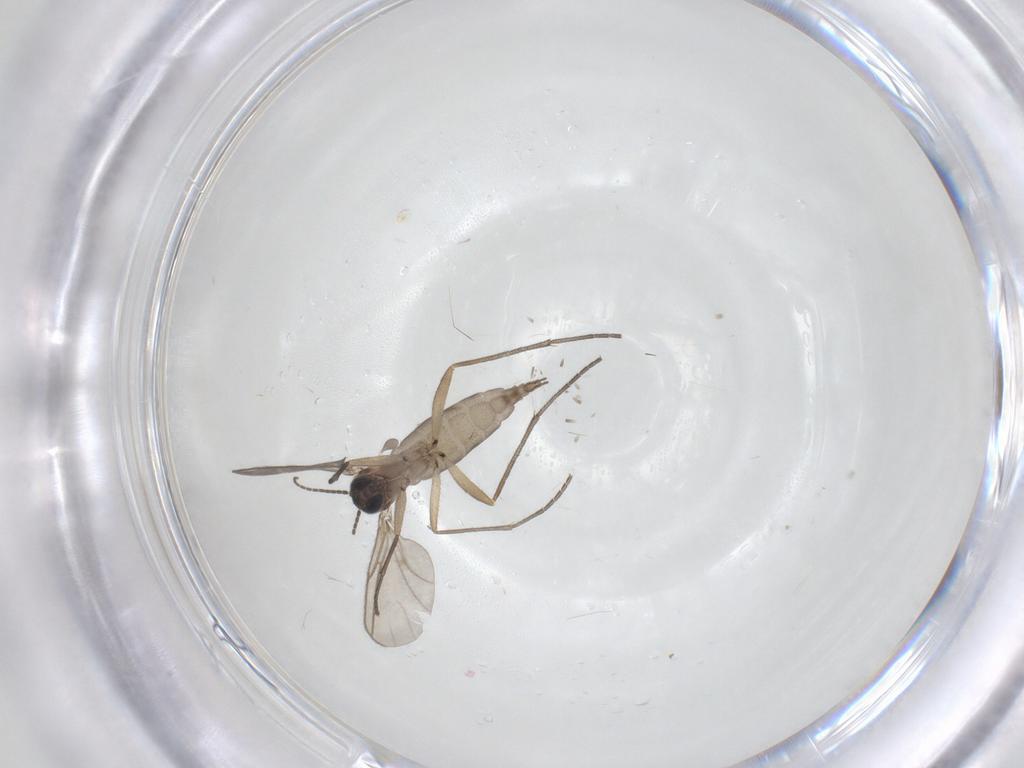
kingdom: Animalia
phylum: Arthropoda
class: Insecta
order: Diptera
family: Sciaridae
